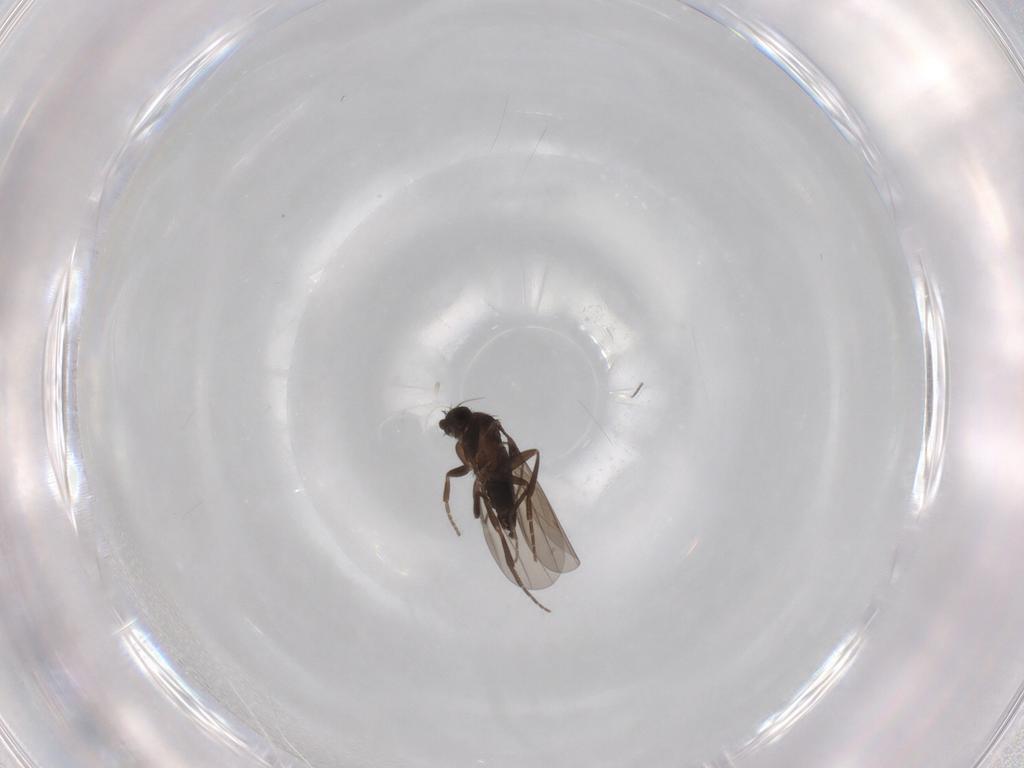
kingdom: Animalia
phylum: Arthropoda
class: Insecta
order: Diptera
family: Phoridae
